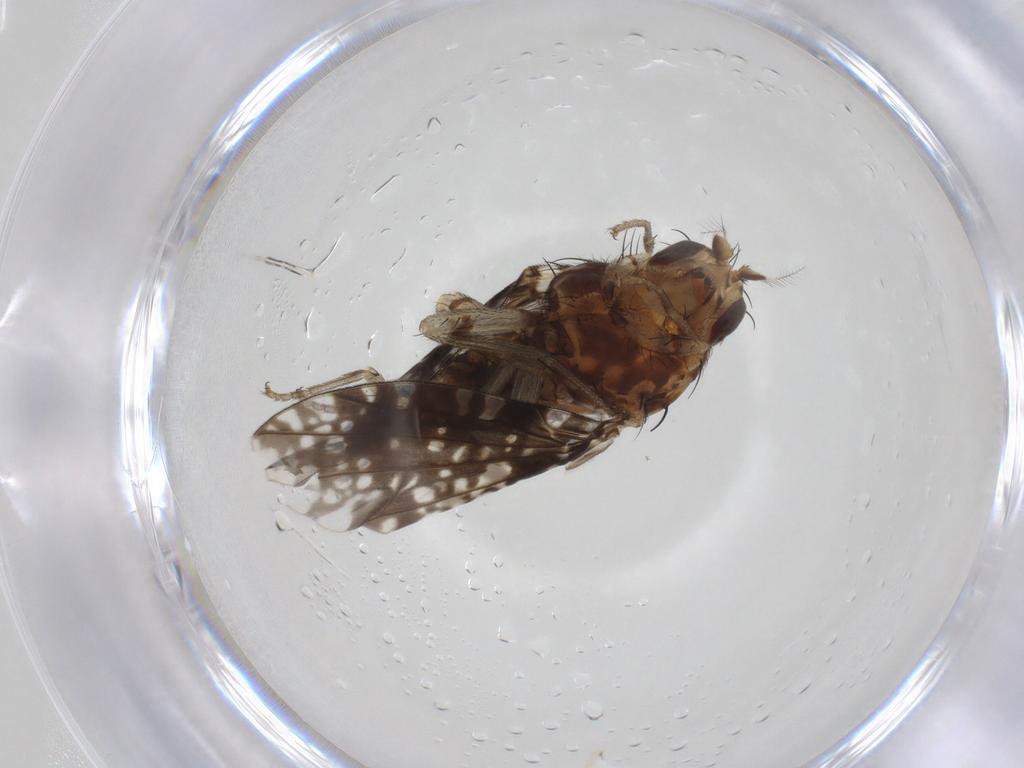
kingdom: Animalia
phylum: Arthropoda
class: Insecta
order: Diptera
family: Lauxaniidae
